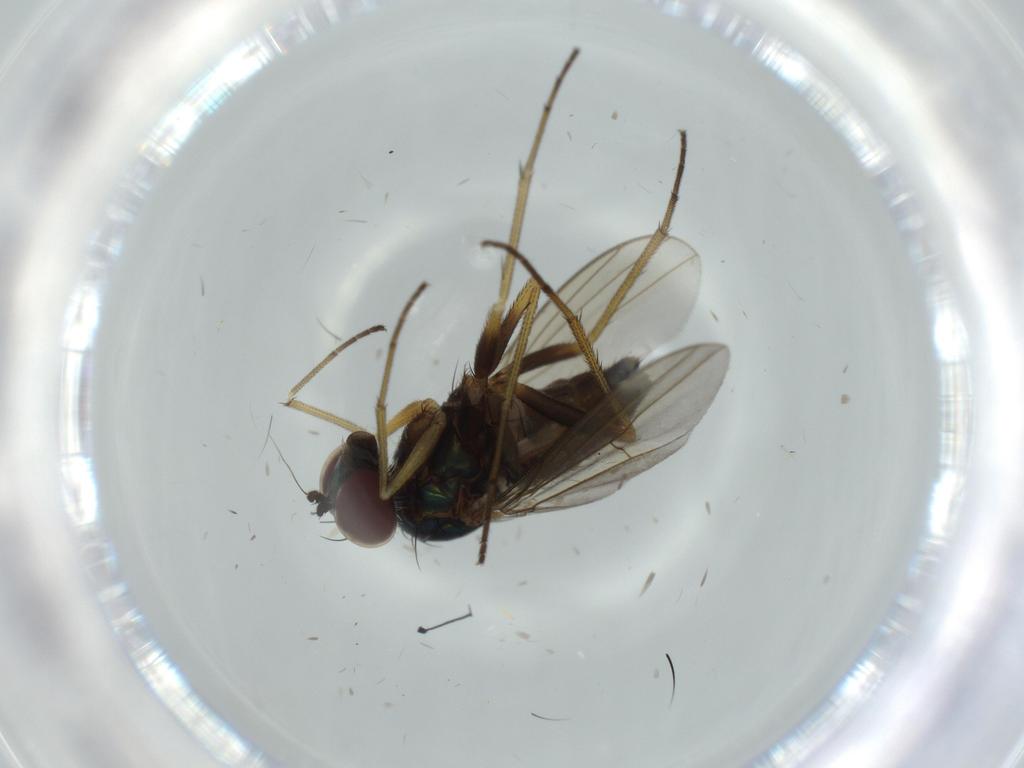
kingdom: Animalia
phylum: Arthropoda
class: Insecta
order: Diptera
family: Dolichopodidae
